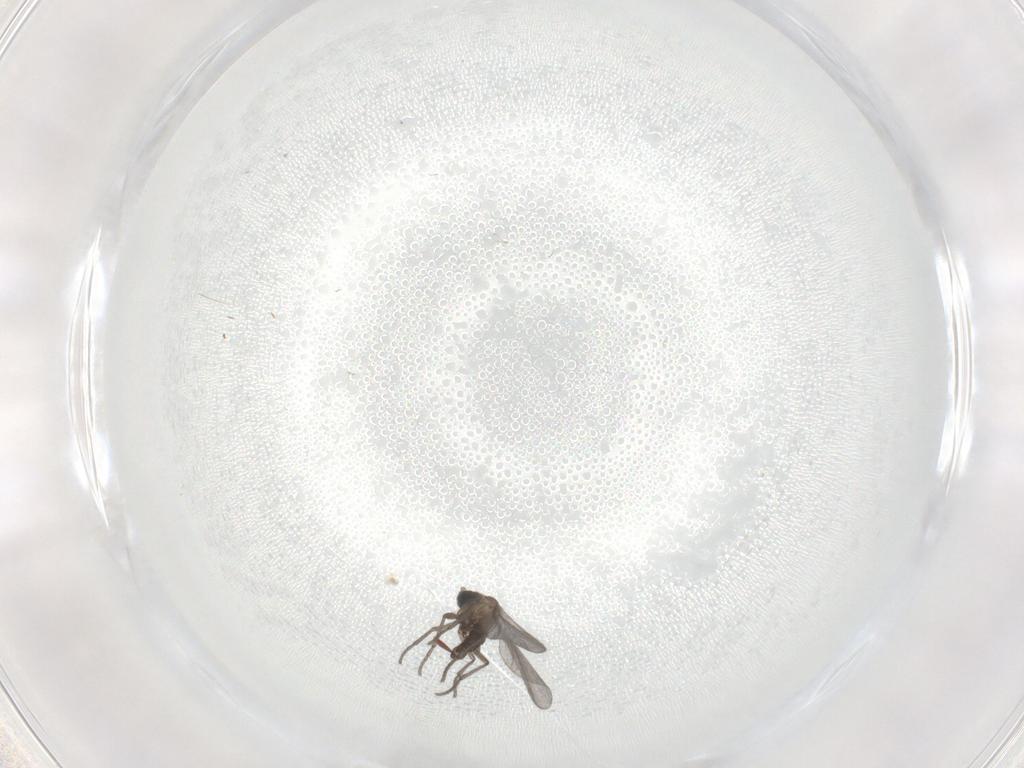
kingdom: Animalia
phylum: Arthropoda
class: Insecta
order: Diptera
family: Sciaridae
